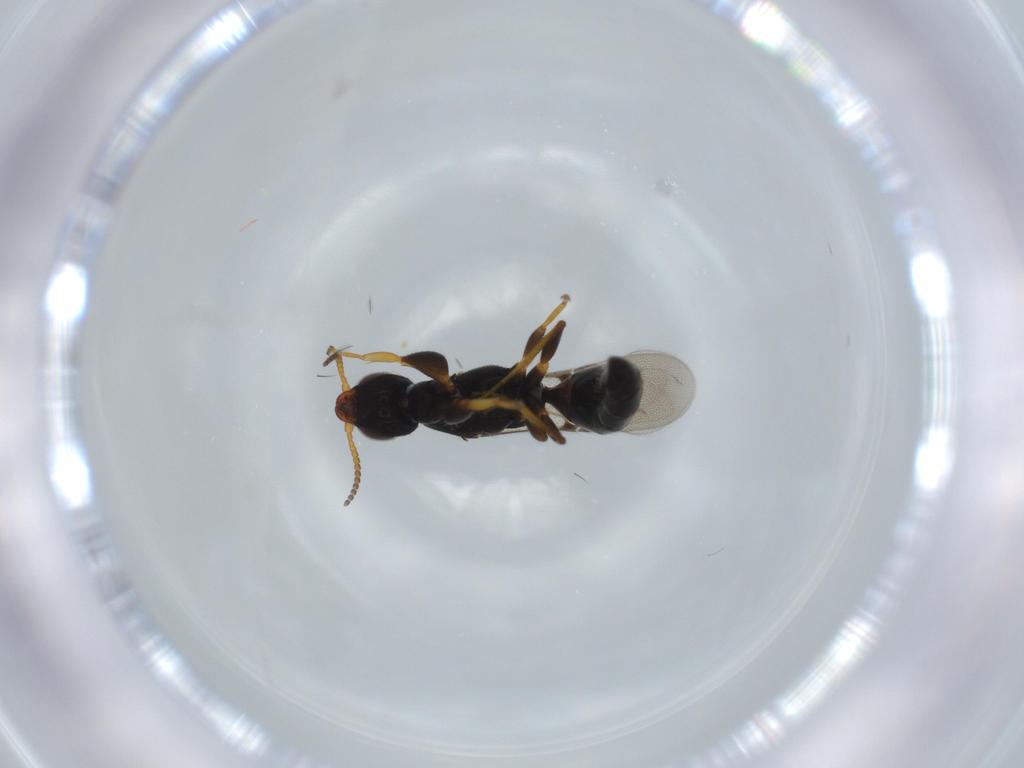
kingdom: Animalia
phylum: Arthropoda
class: Insecta
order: Hymenoptera
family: Bethylidae
